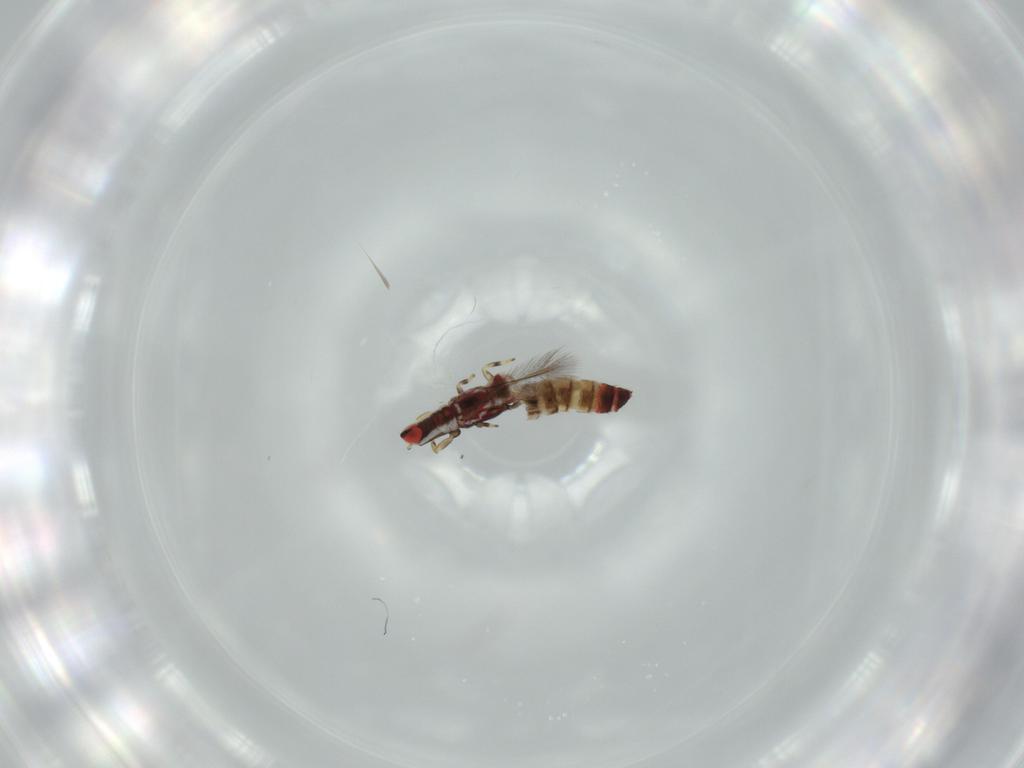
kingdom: Animalia
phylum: Arthropoda
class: Insecta
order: Thysanoptera
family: Phlaeothripidae
